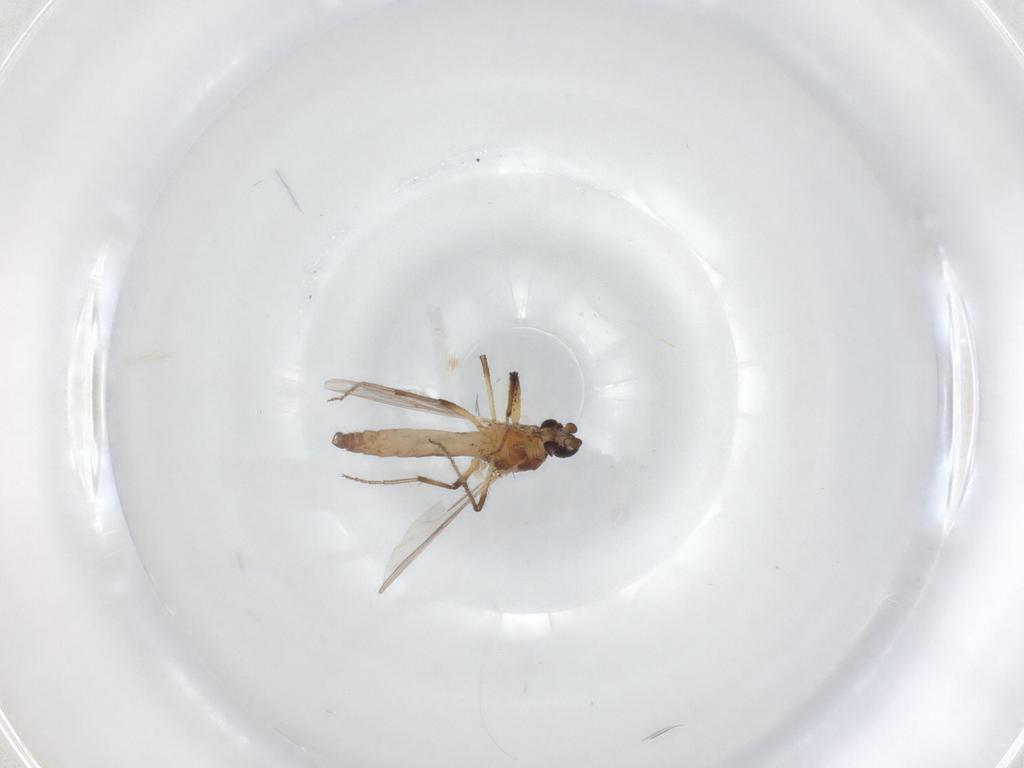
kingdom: Animalia
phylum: Arthropoda
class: Insecta
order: Diptera
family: Ceratopogonidae
